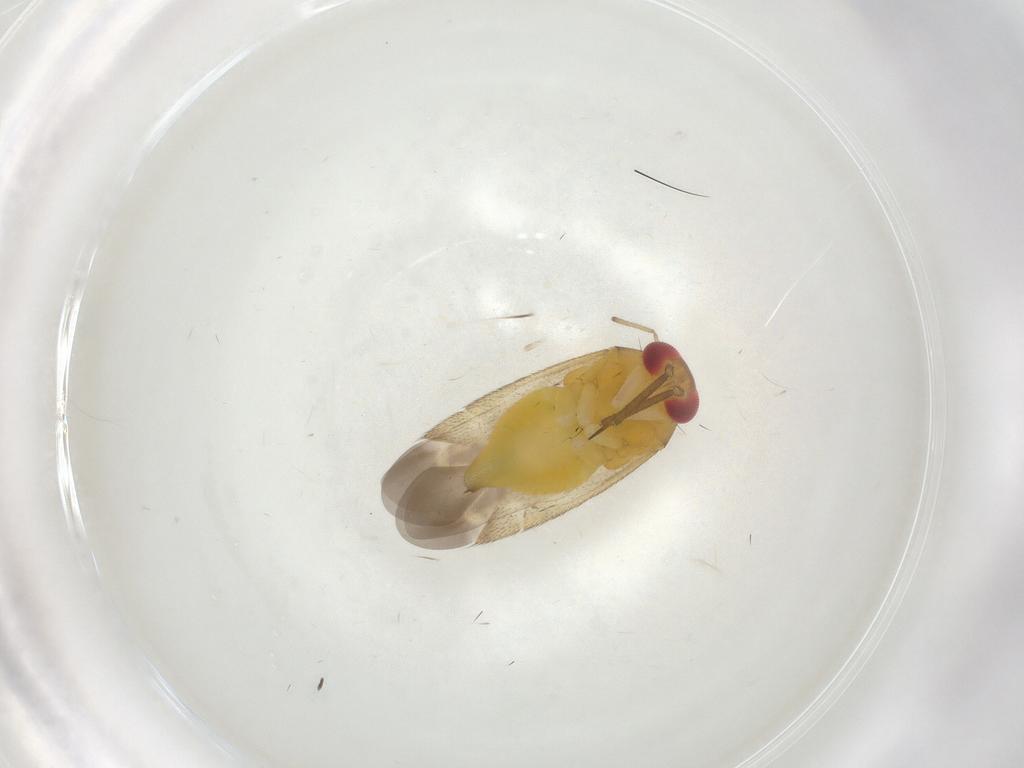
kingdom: Animalia
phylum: Arthropoda
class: Insecta
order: Hemiptera
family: Miridae
